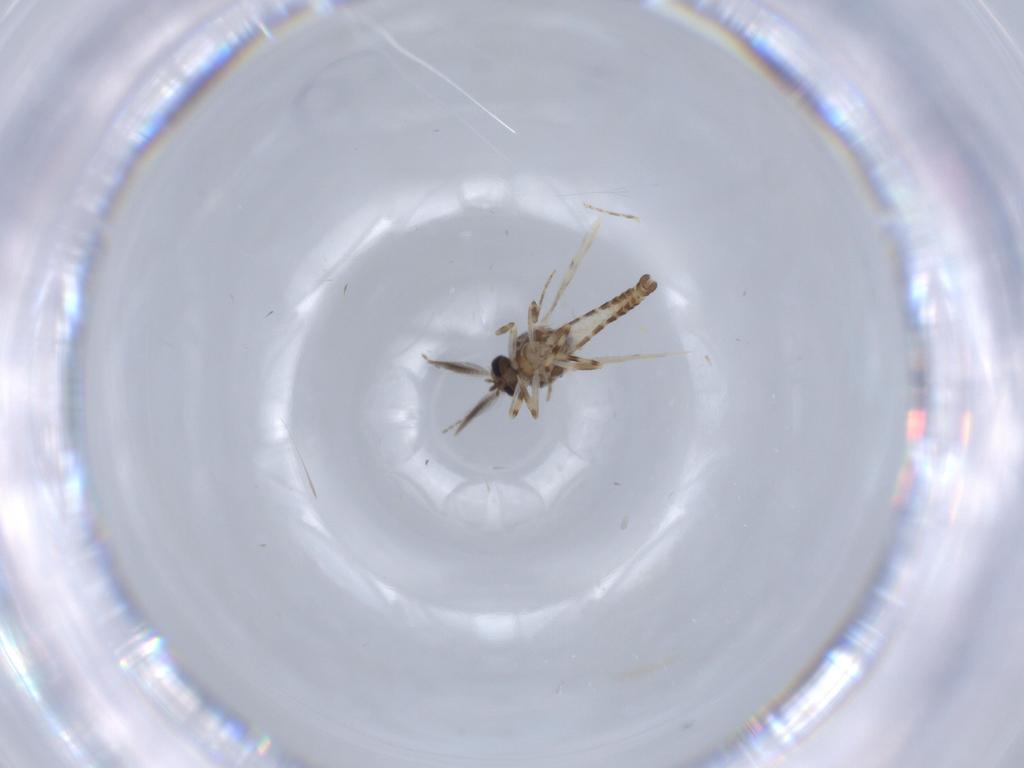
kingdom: Animalia
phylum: Arthropoda
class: Insecta
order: Diptera
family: Ceratopogonidae
